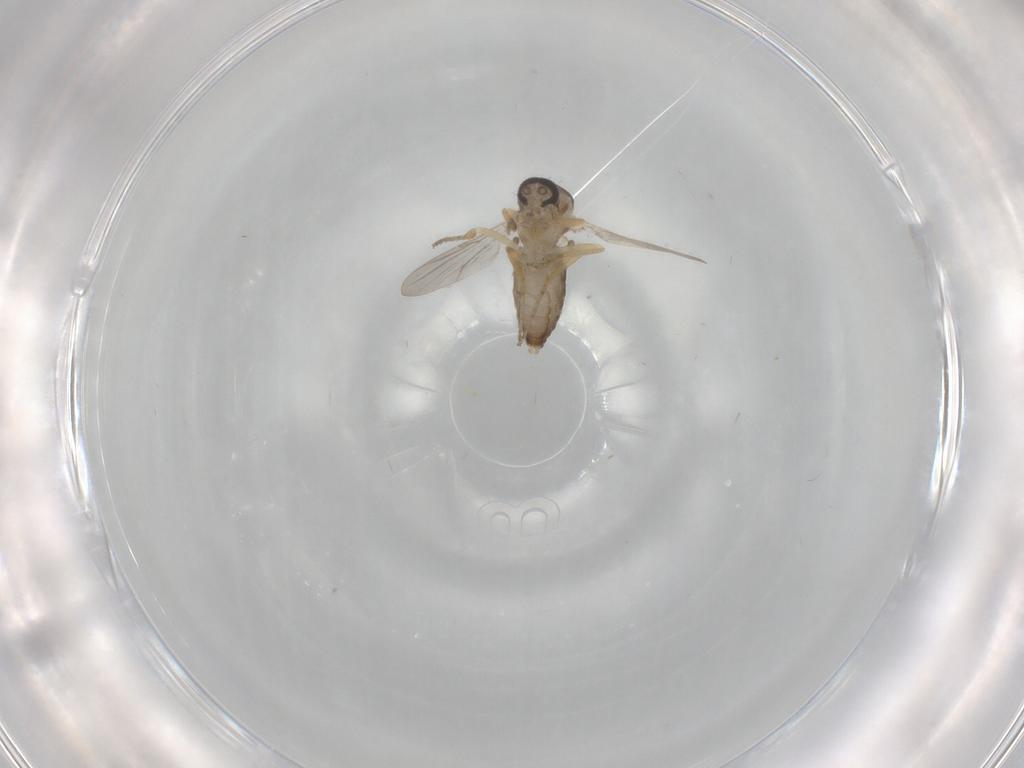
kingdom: Animalia
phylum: Arthropoda
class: Insecta
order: Diptera
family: Ceratopogonidae
